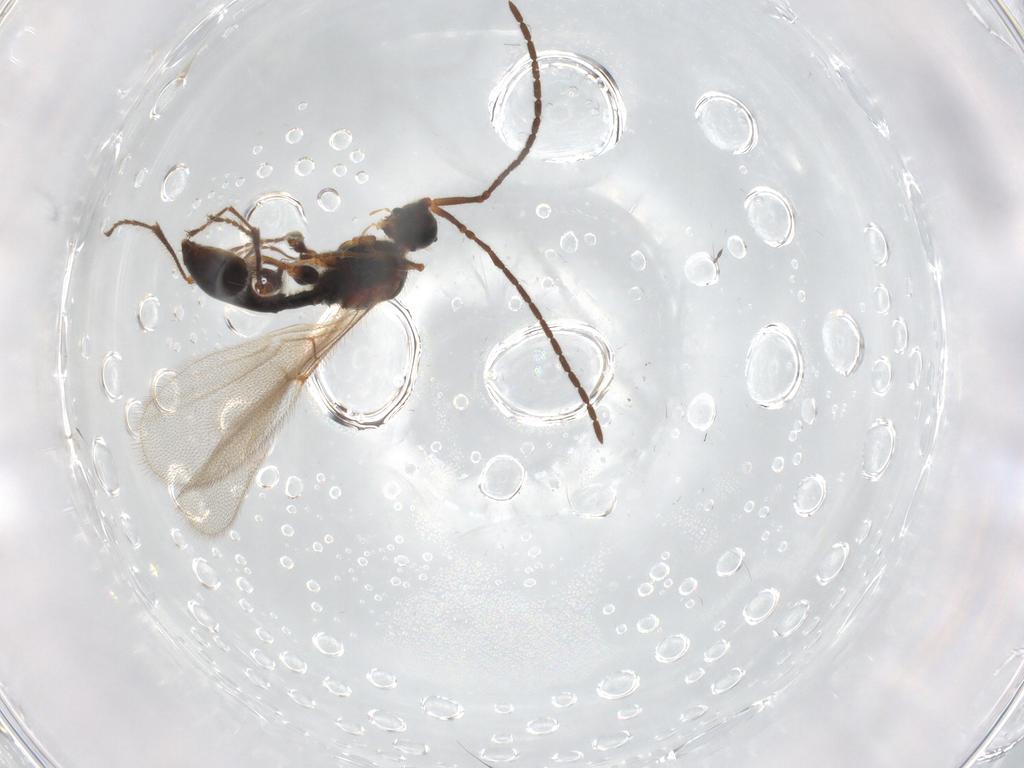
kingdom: Animalia
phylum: Arthropoda
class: Insecta
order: Hymenoptera
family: Diapriidae
